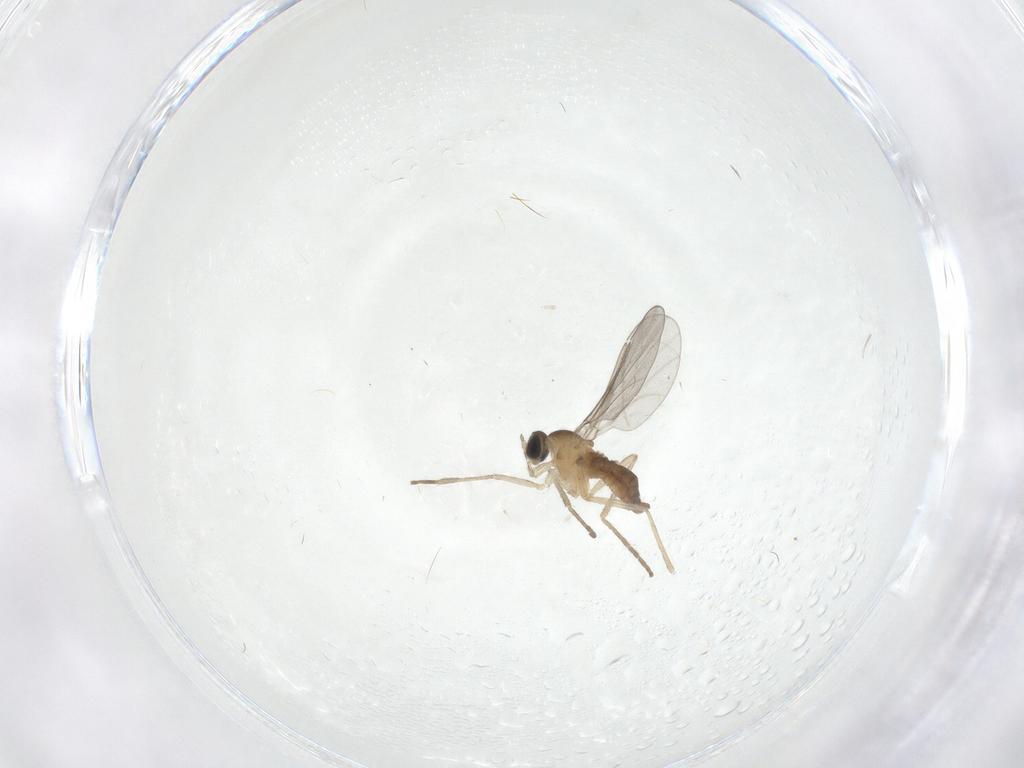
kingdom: Animalia
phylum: Arthropoda
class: Insecta
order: Diptera
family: Cecidomyiidae
